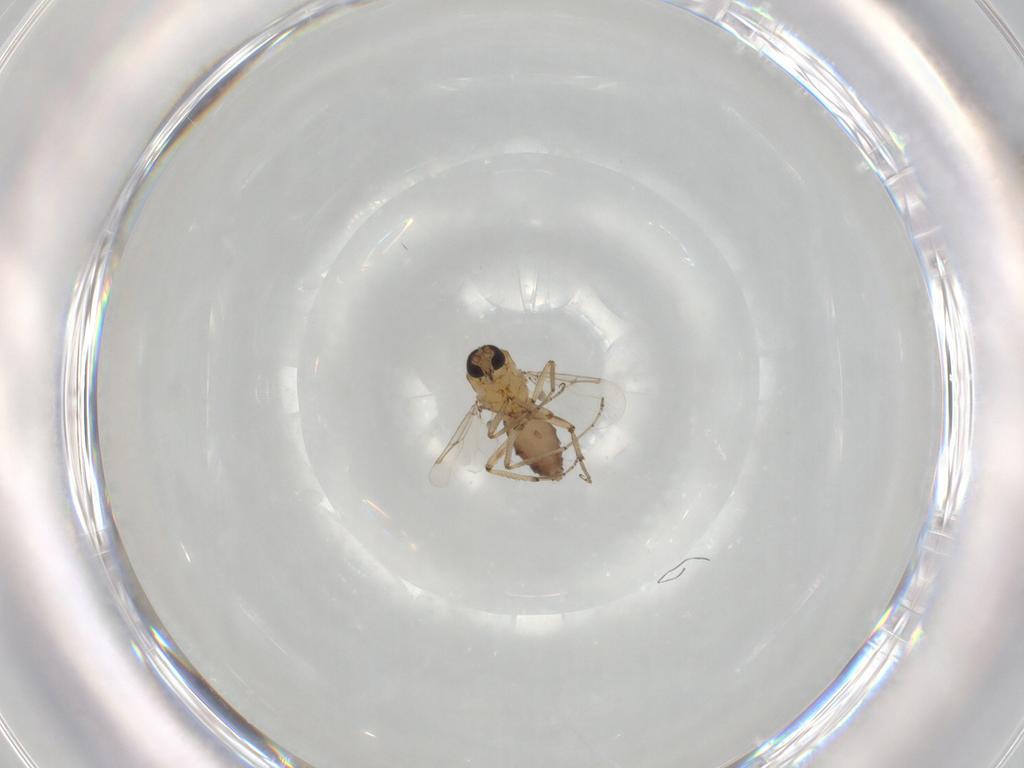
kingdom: Animalia
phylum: Arthropoda
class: Insecta
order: Diptera
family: Ceratopogonidae
